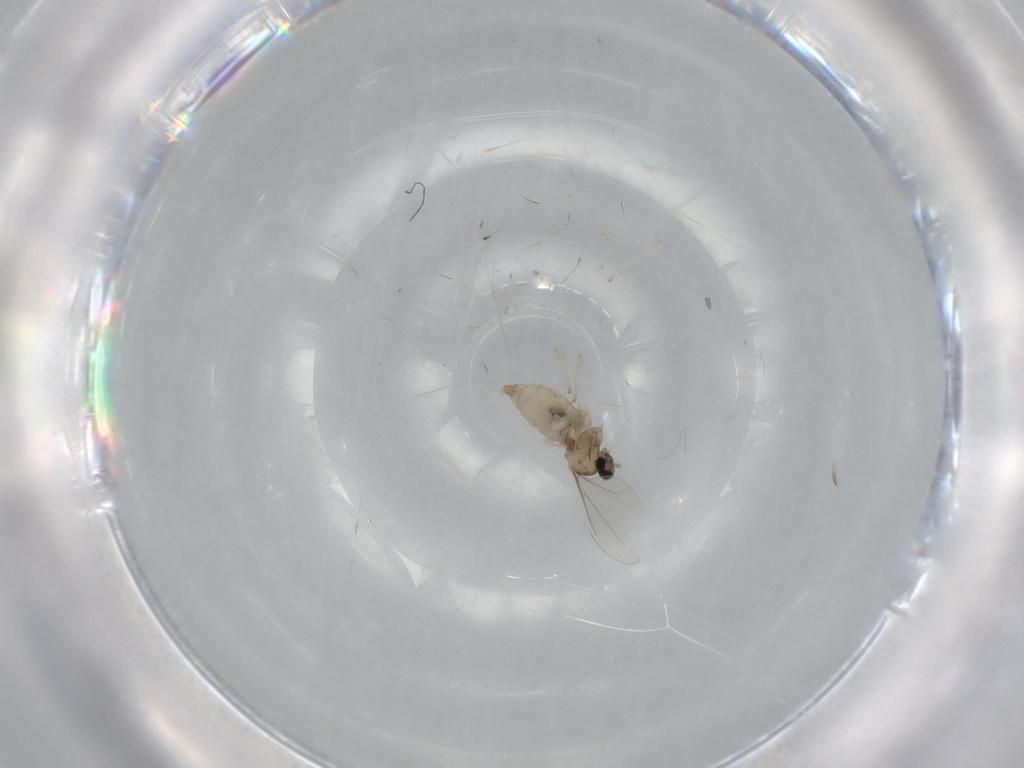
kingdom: Animalia
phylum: Arthropoda
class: Insecta
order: Diptera
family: Cecidomyiidae
